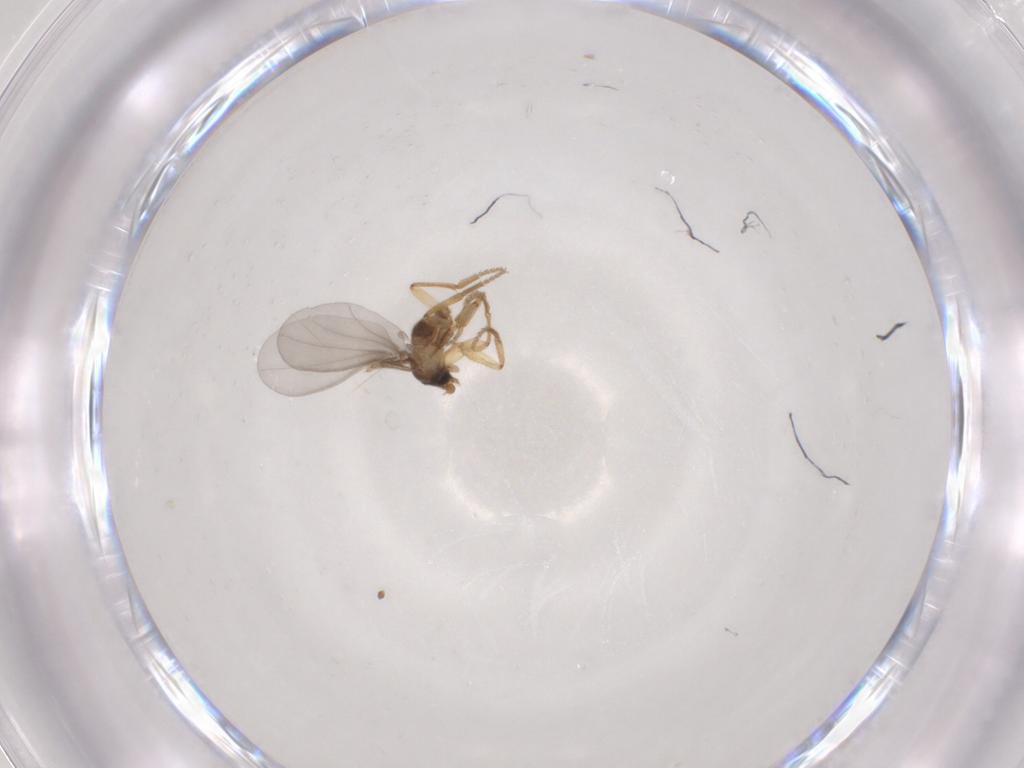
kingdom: Animalia
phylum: Arthropoda
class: Insecta
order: Diptera
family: Phoridae
